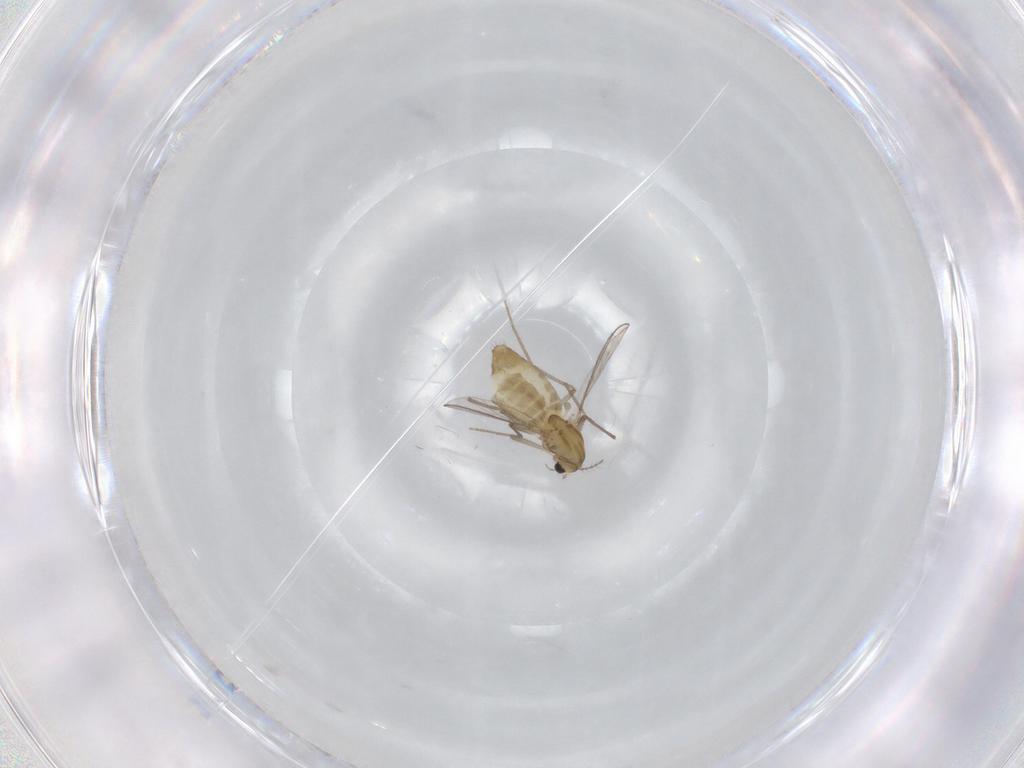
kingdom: Animalia
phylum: Arthropoda
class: Insecta
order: Diptera
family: Chironomidae
